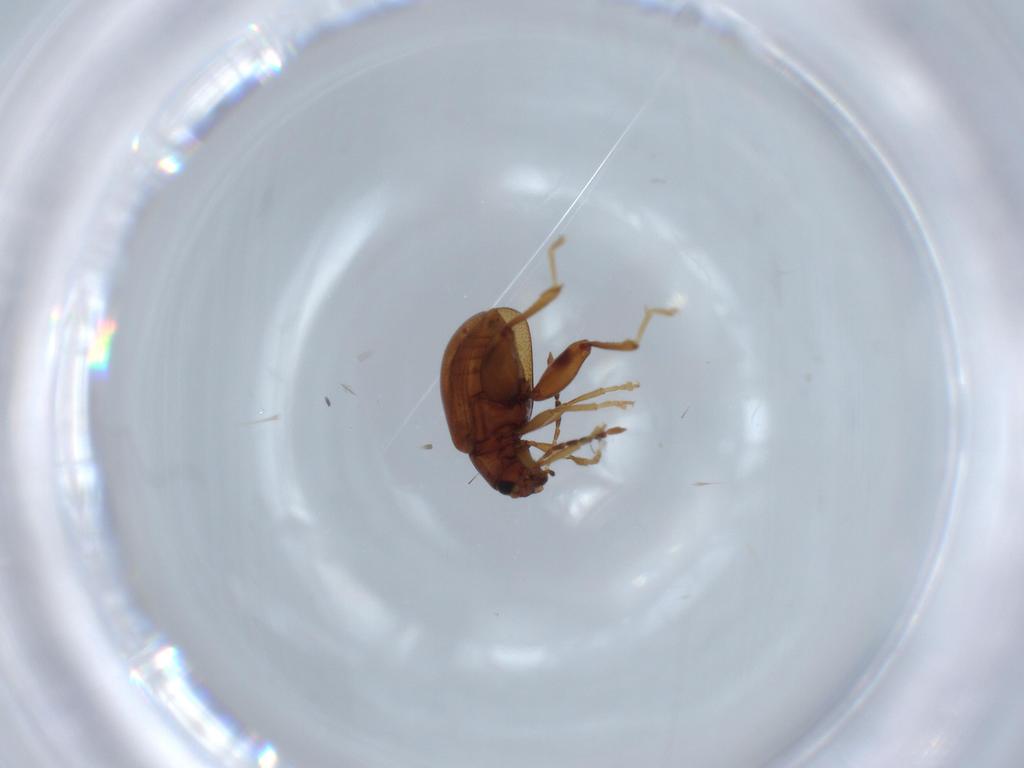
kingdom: Animalia
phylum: Arthropoda
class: Insecta
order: Coleoptera
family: Chrysomelidae
